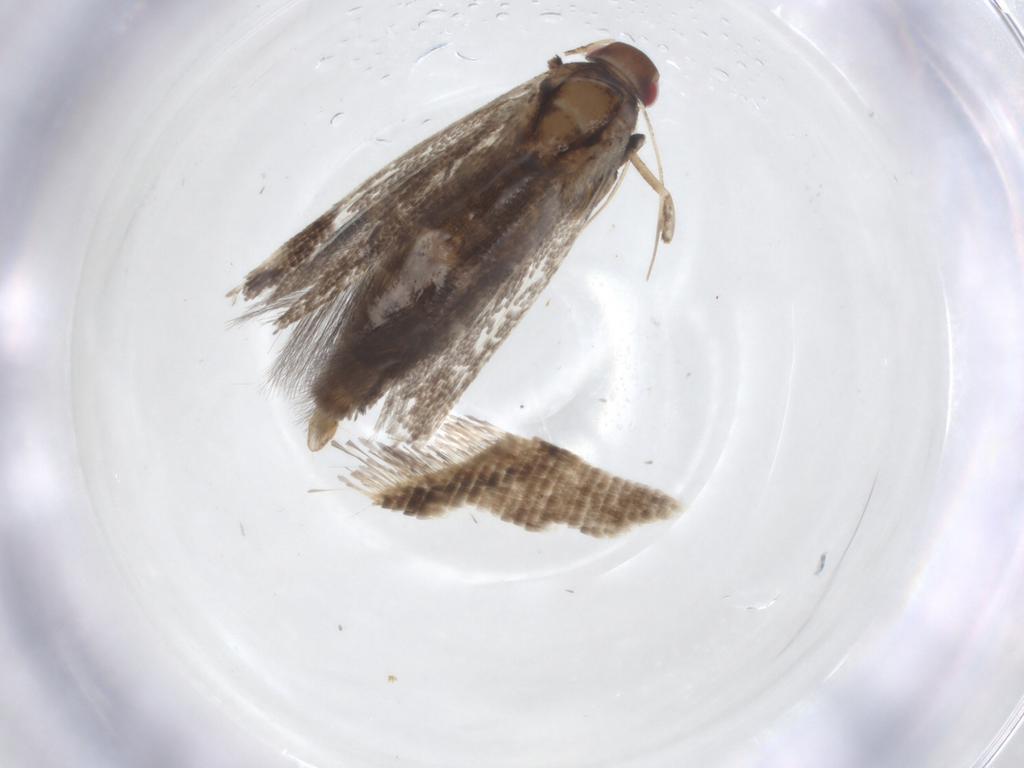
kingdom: Animalia
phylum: Arthropoda
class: Insecta
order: Lepidoptera
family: Gelechiidae
